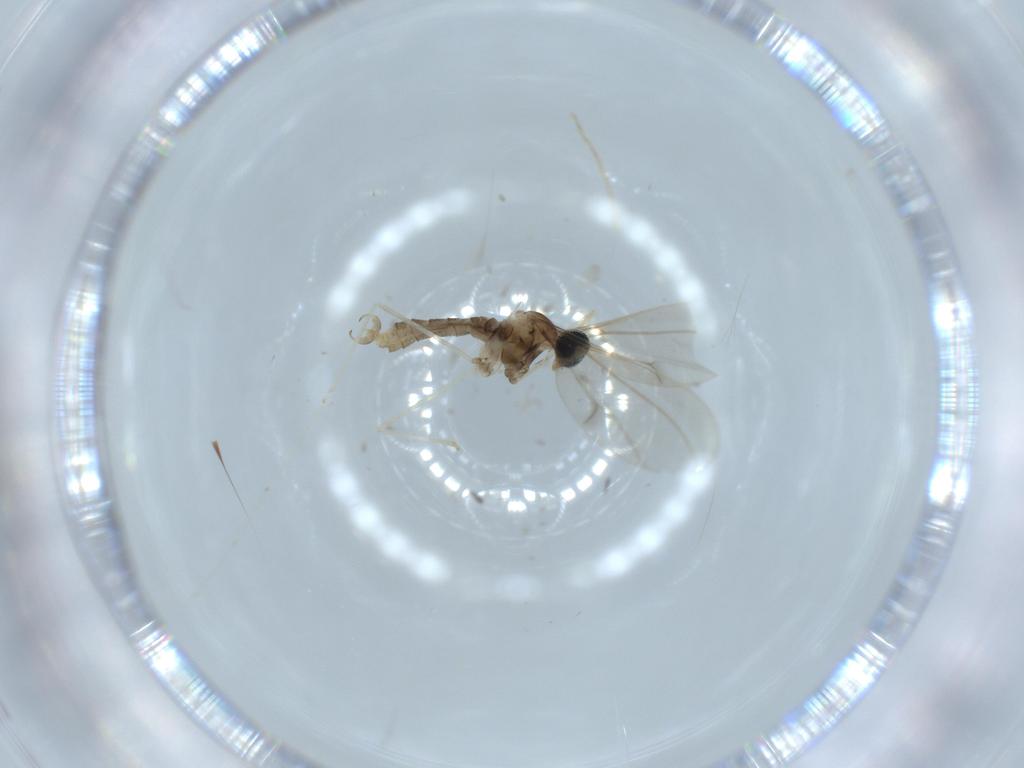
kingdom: Animalia
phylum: Arthropoda
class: Insecta
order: Diptera
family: Cecidomyiidae
